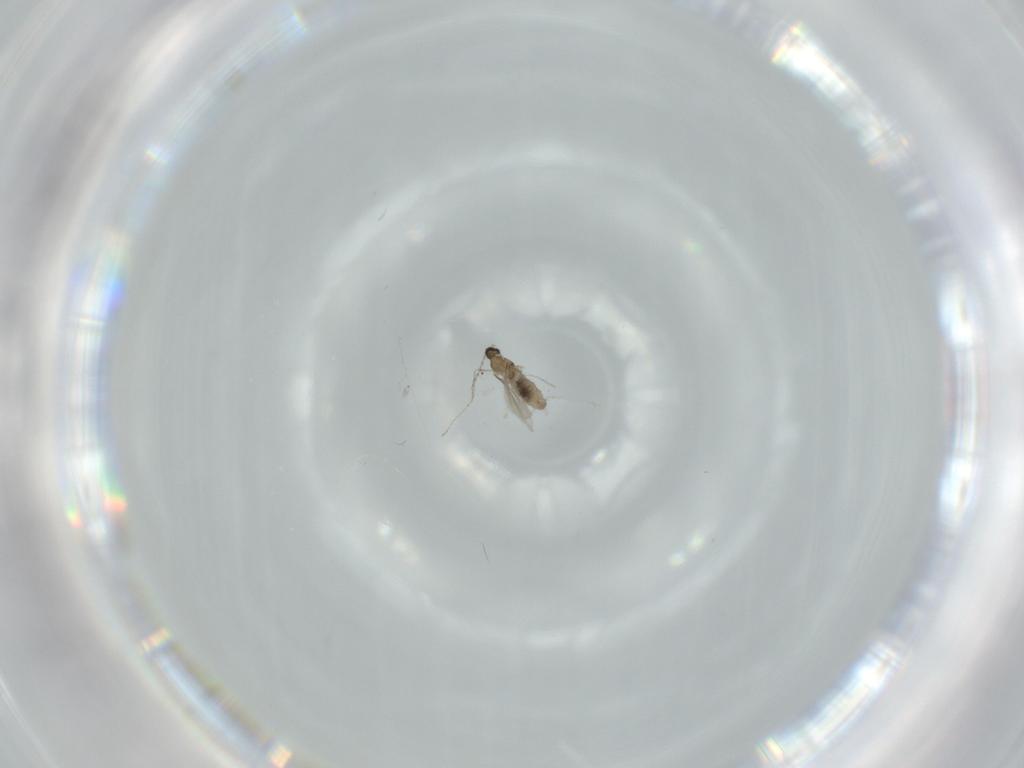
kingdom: Animalia
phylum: Arthropoda
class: Insecta
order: Diptera
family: Cecidomyiidae
